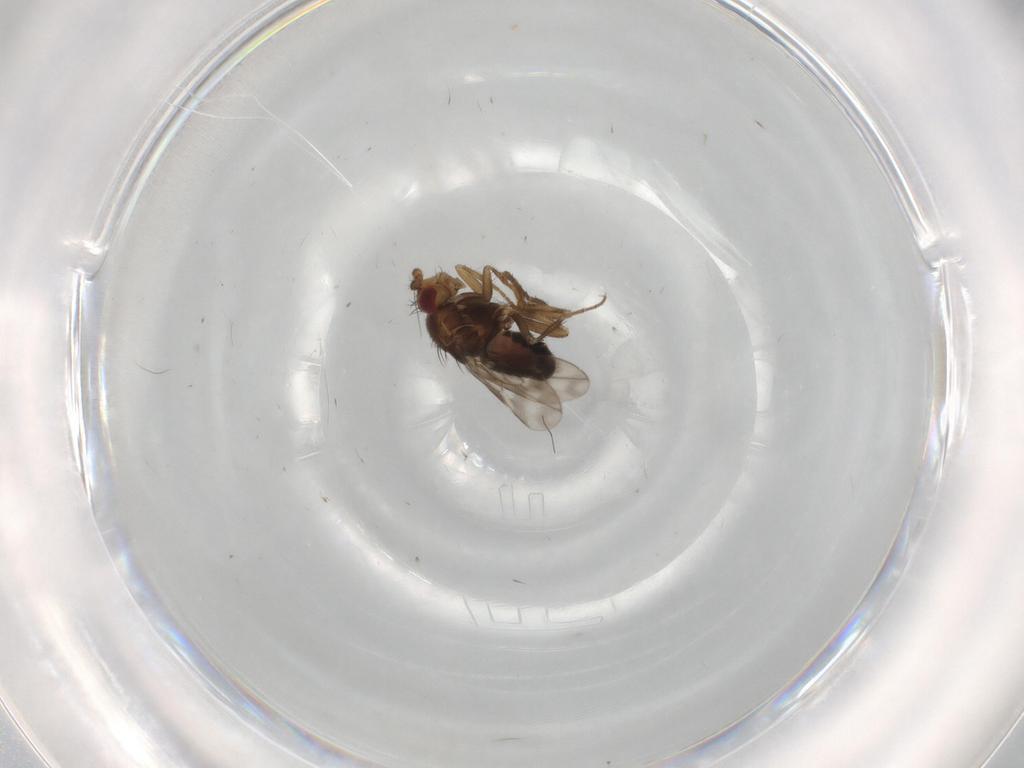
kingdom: Animalia
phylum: Arthropoda
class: Insecta
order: Diptera
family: Sphaeroceridae
